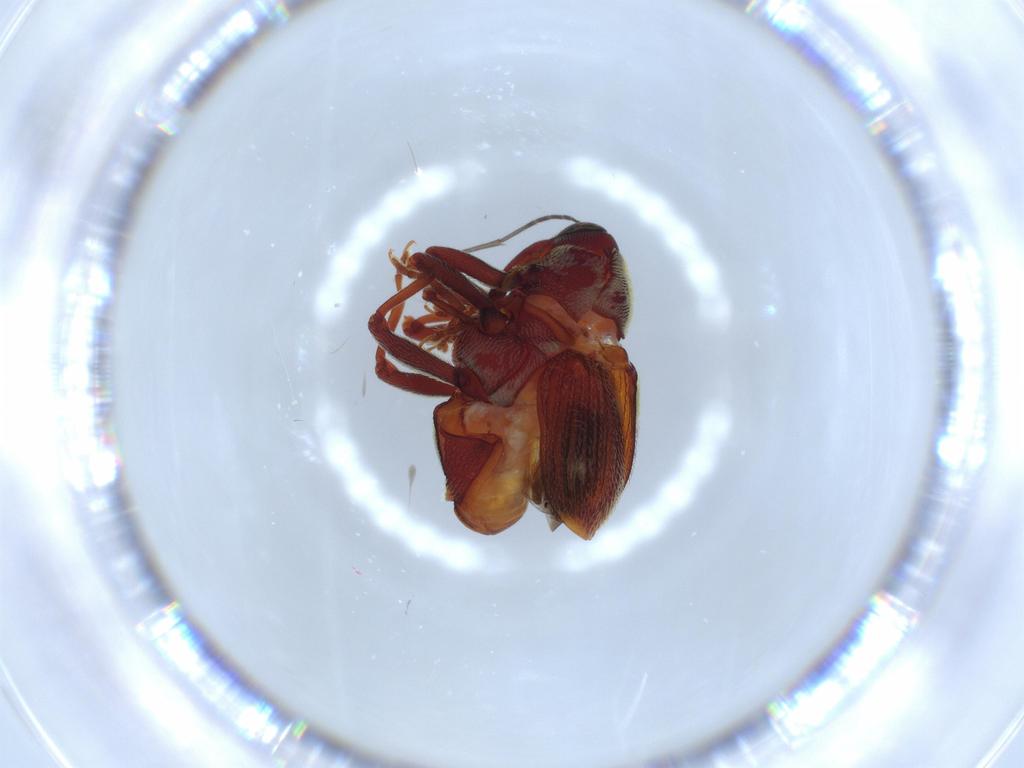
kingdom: Animalia
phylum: Arthropoda
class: Insecta
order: Coleoptera
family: Curculionidae
